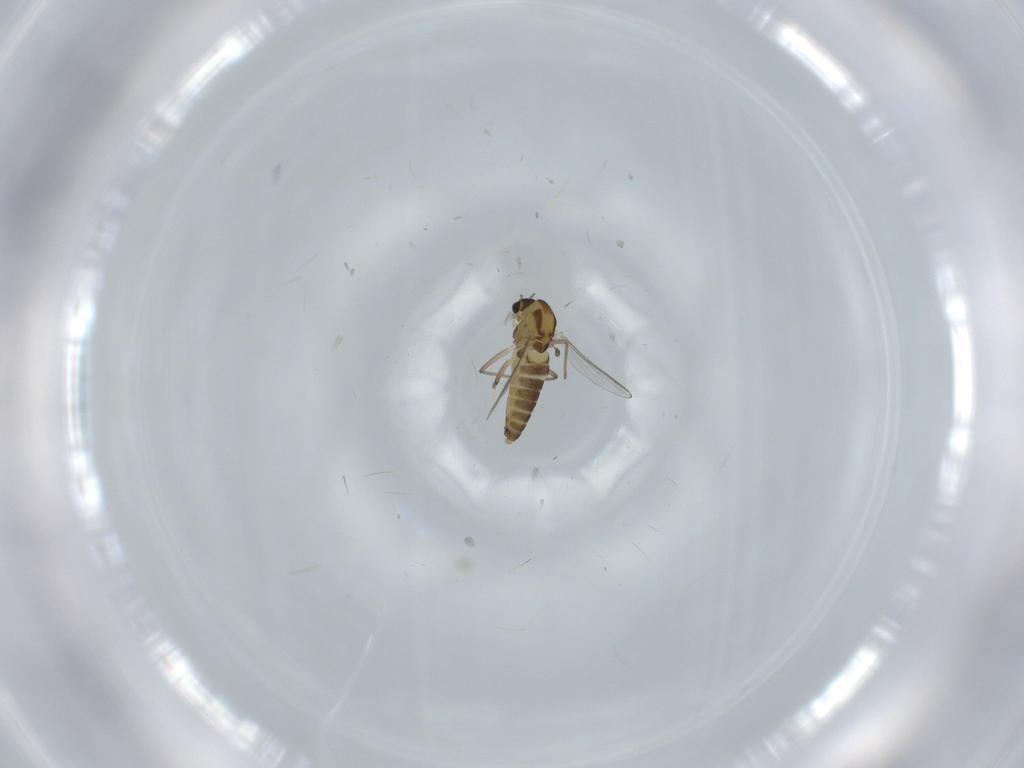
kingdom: Animalia
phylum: Arthropoda
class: Insecta
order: Diptera
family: Chironomidae
